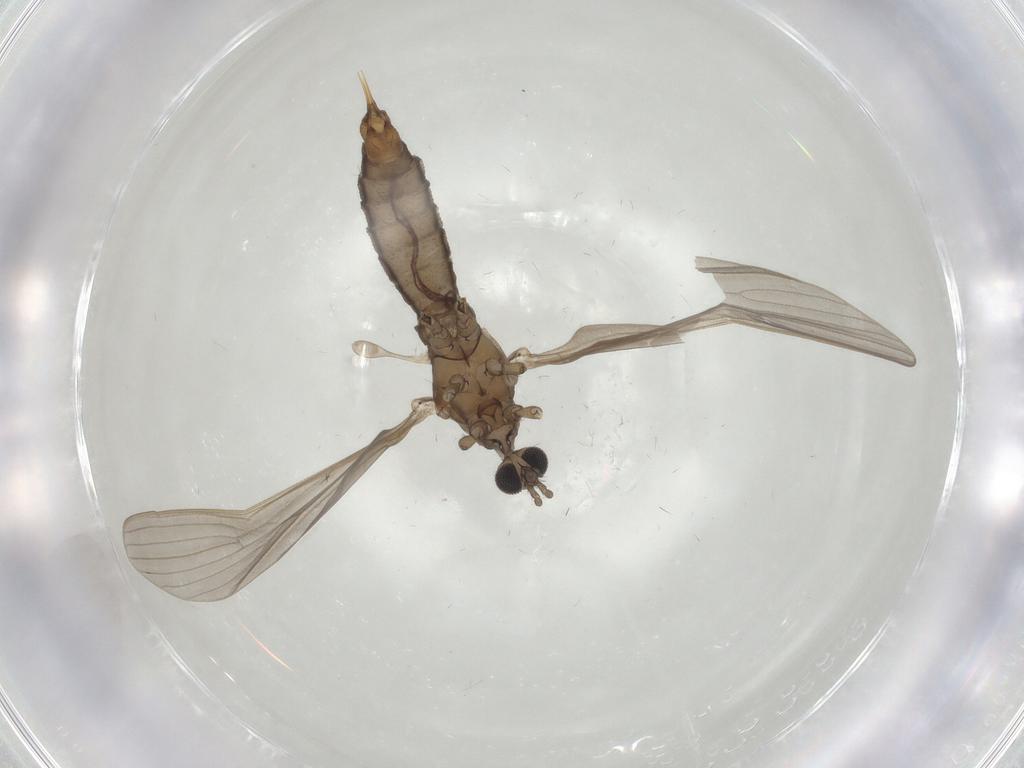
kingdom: Animalia
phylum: Arthropoda
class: Insecta
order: Diptera
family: Limoniidae
